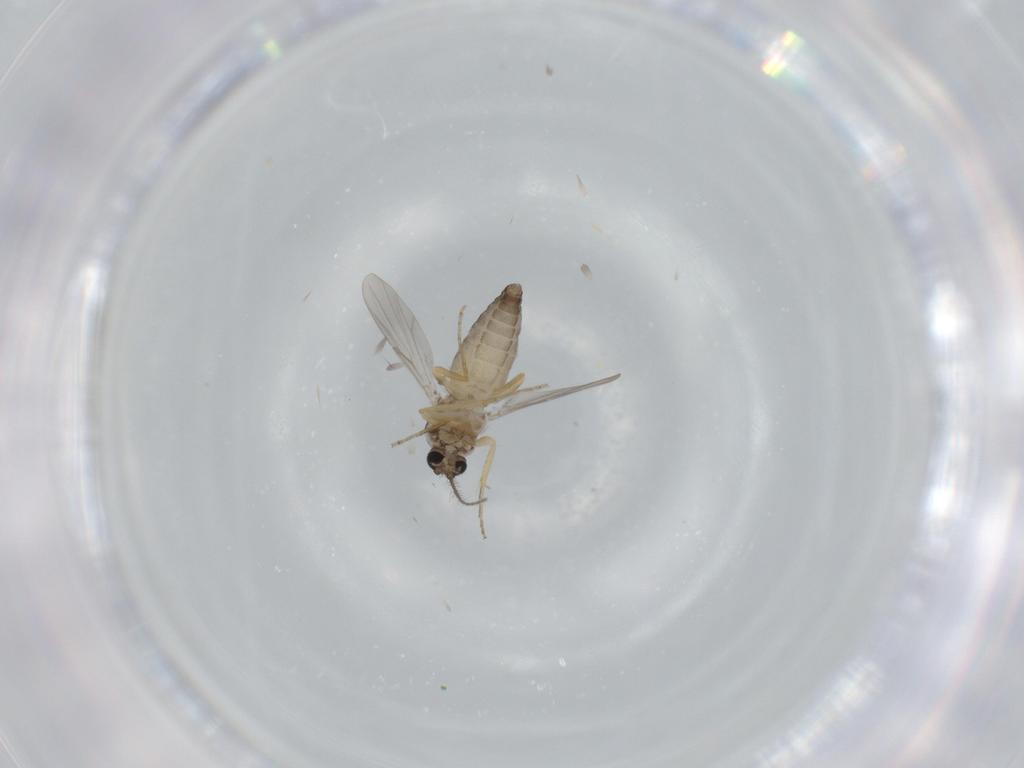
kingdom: Animalia
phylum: Arthropoda
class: Insecta
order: Diptera
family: Ceratopogonidae
